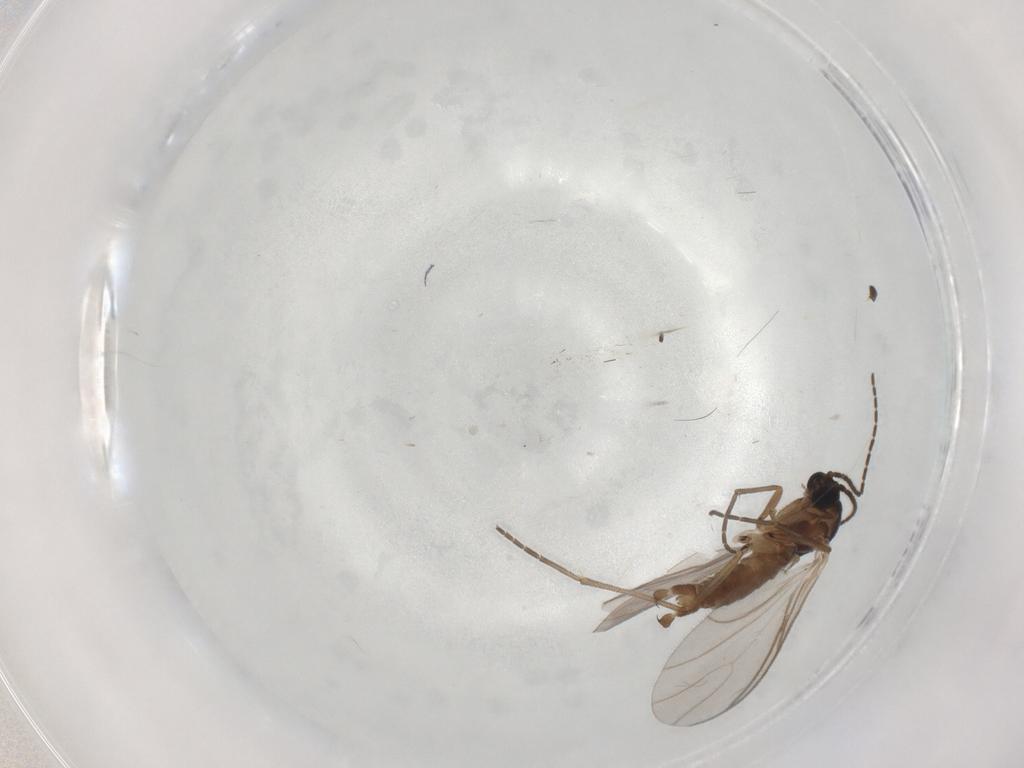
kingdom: Animalia
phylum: Arthropoda
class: Insecta
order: Diptera
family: Sciaridae
